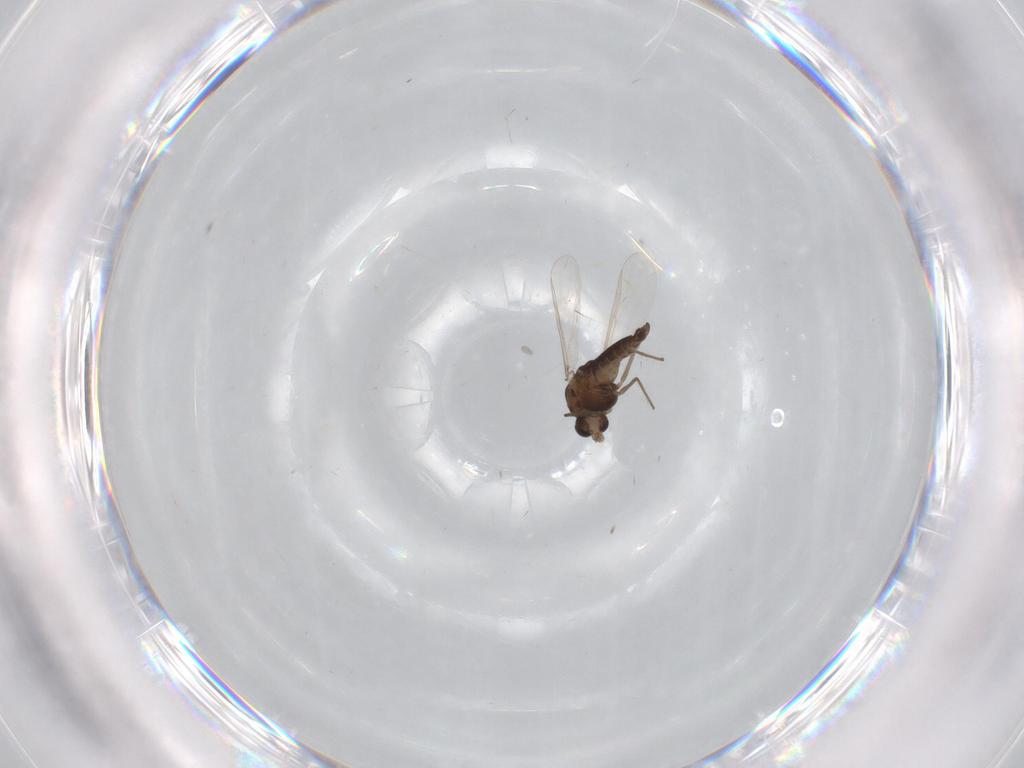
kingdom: Animalia
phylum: Arthropoda
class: Insecta
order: Diptera
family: Chironomidae
